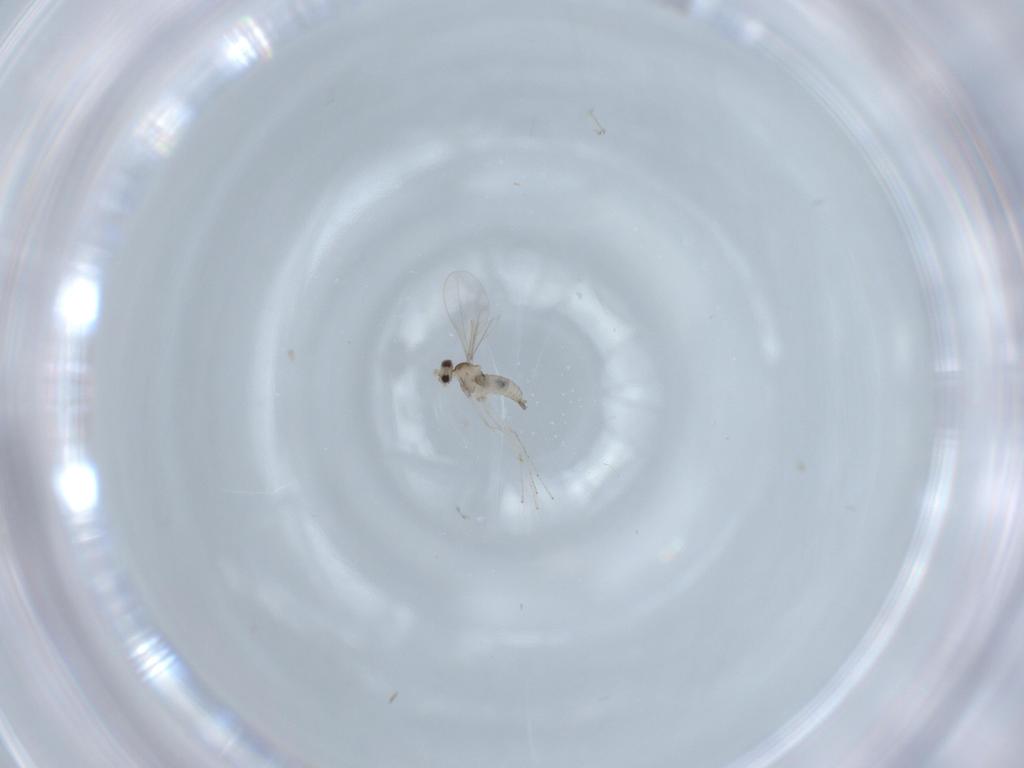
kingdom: Animalia
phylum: Arthropoda
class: Insecta
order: Diptera
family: Cecidomyiidae
